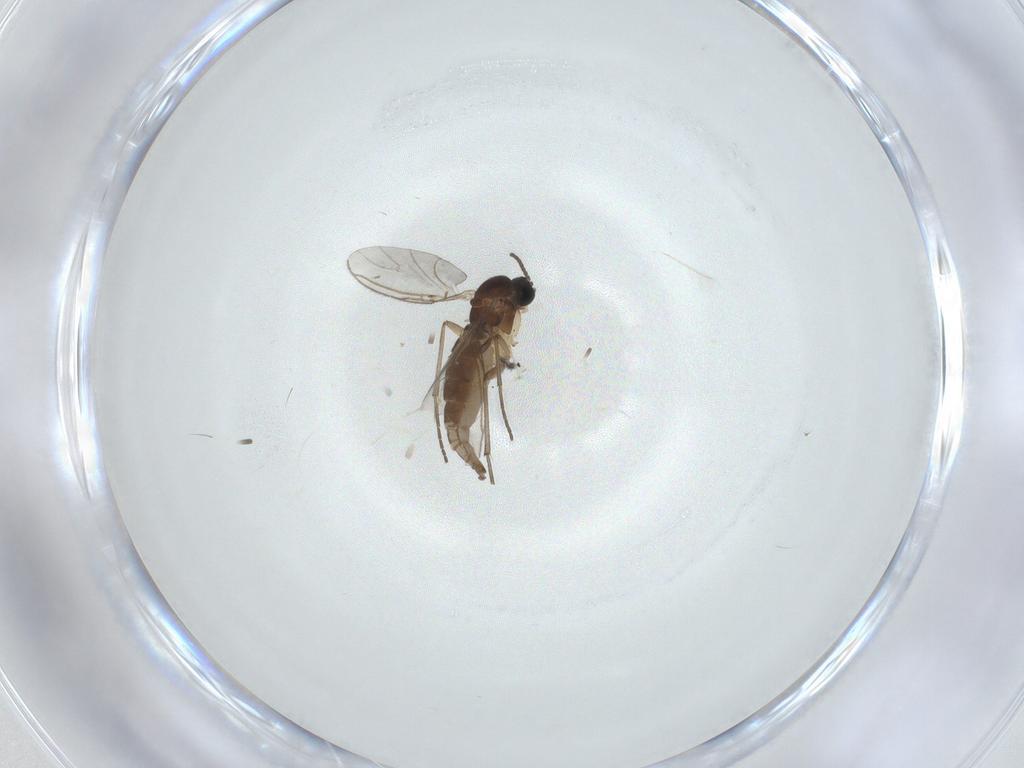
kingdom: Animalia
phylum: Arthropoda
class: Insecta
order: Diptera
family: Sciaridae
